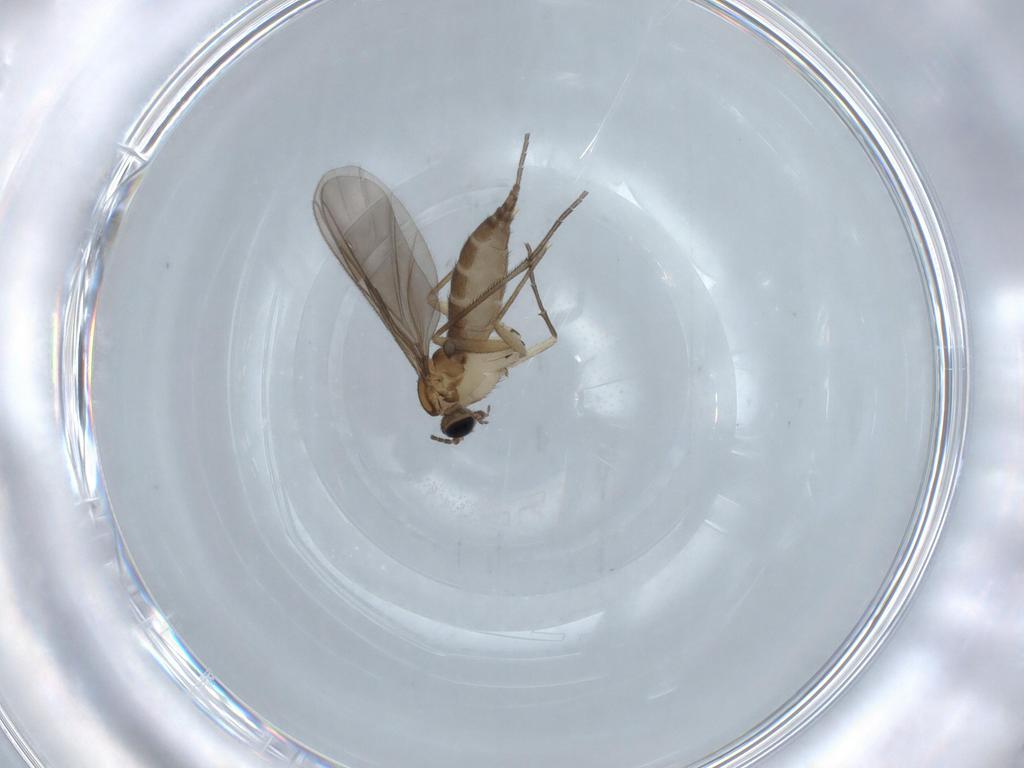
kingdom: Animalia
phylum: Arthropoda
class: Insecta
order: Diptera
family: Sciaridae
